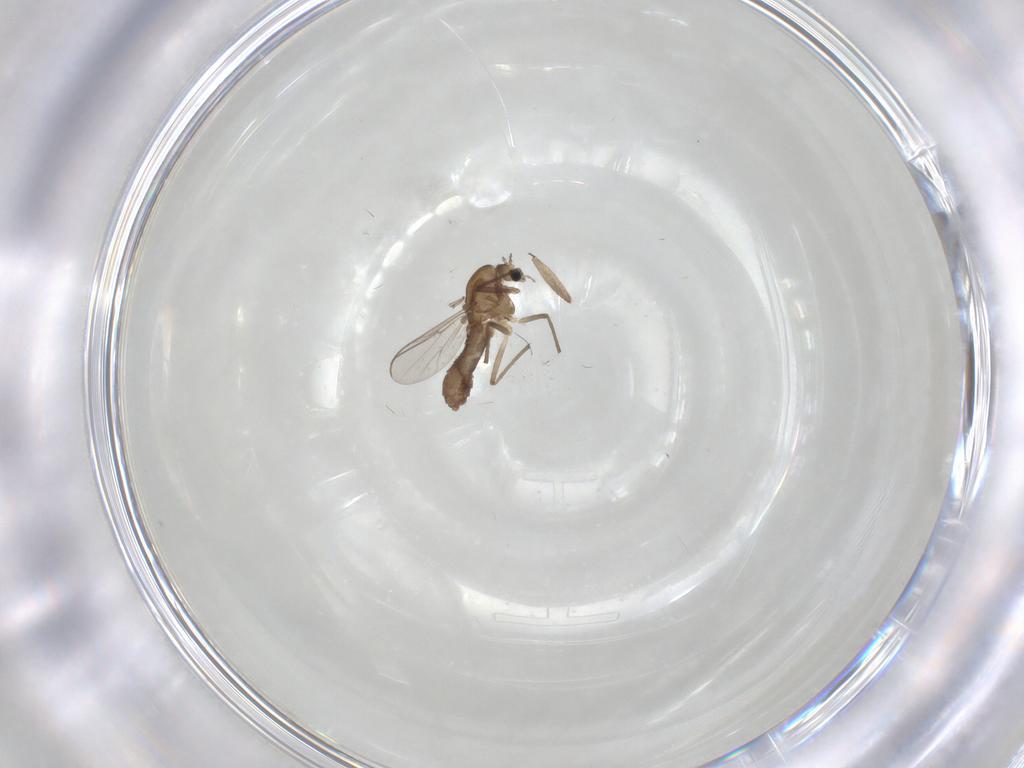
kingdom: Animalia
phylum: Arthropoda
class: Insecta
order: Diptera
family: Chironomidae
